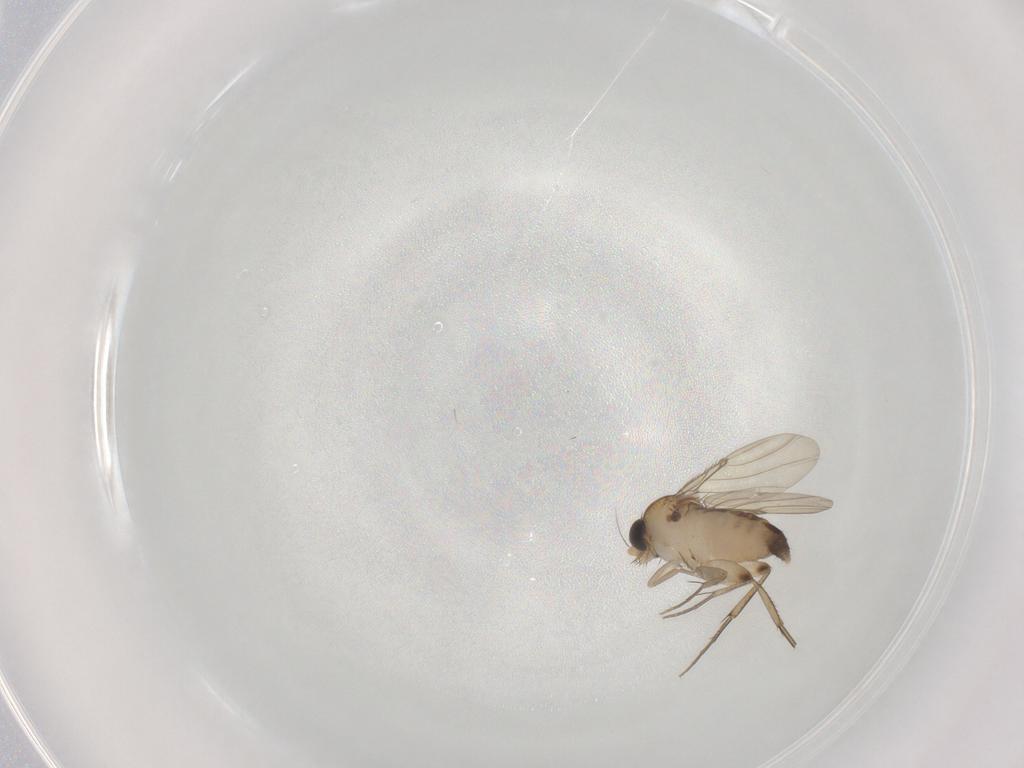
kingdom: Animalia
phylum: Arthropoda
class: Insecta
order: Diptera
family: Phoridae
